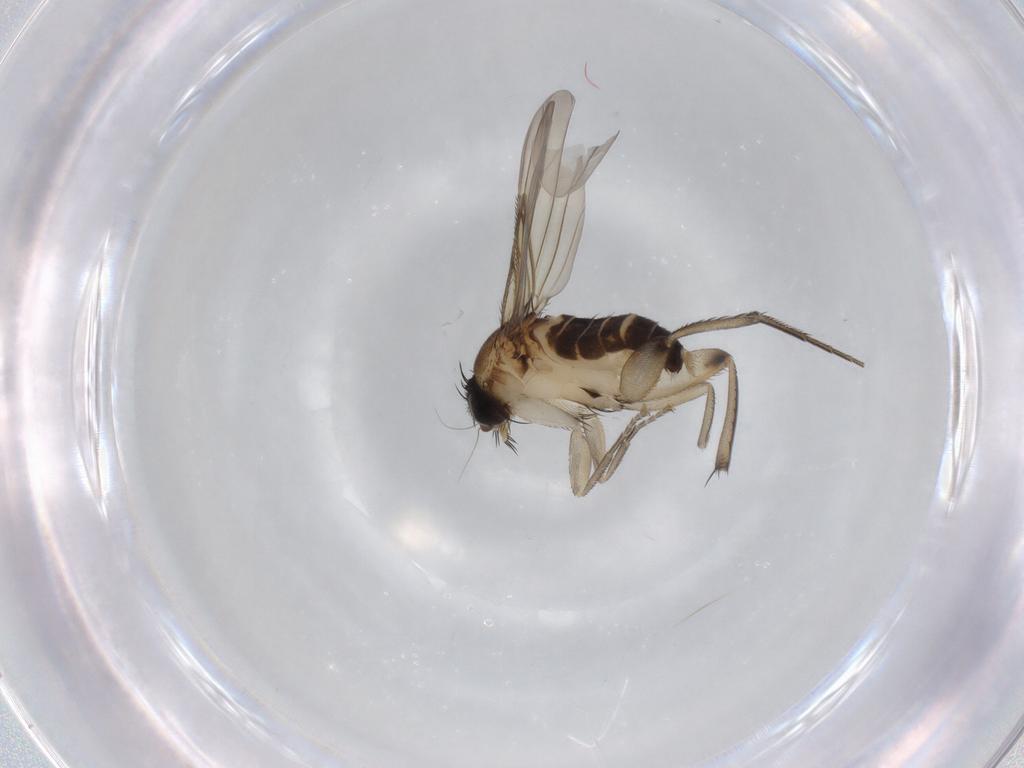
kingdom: Animalia
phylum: Arthropoda
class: Insecta
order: Diptera
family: Phoridae
